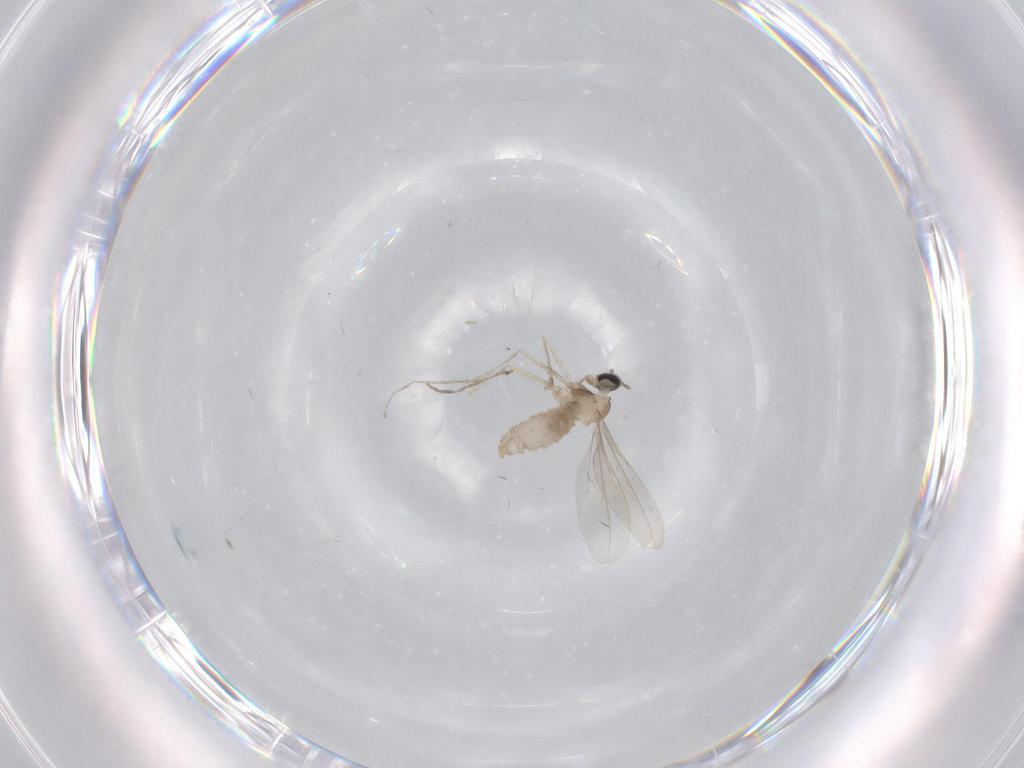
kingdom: Animalia
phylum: Arthropoda
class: Insecta
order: Diptera
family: Cecidomyiidae
